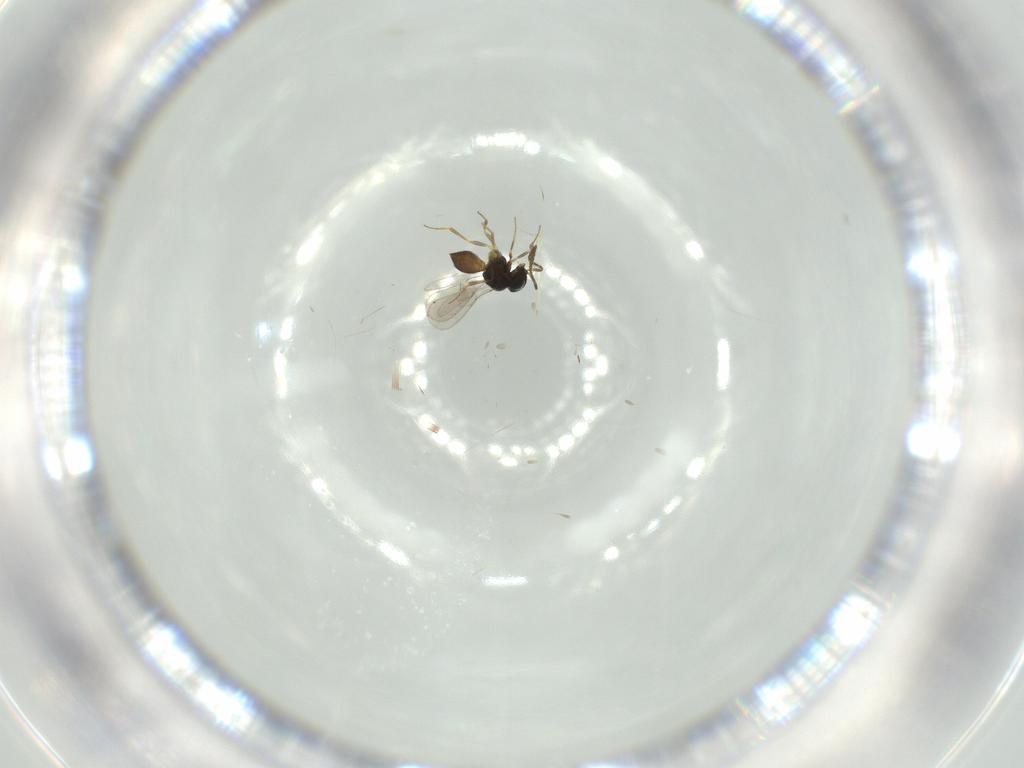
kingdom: Animalia
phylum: Arthropoda
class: Insecta
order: Hymenoptera
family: Scelionidae
